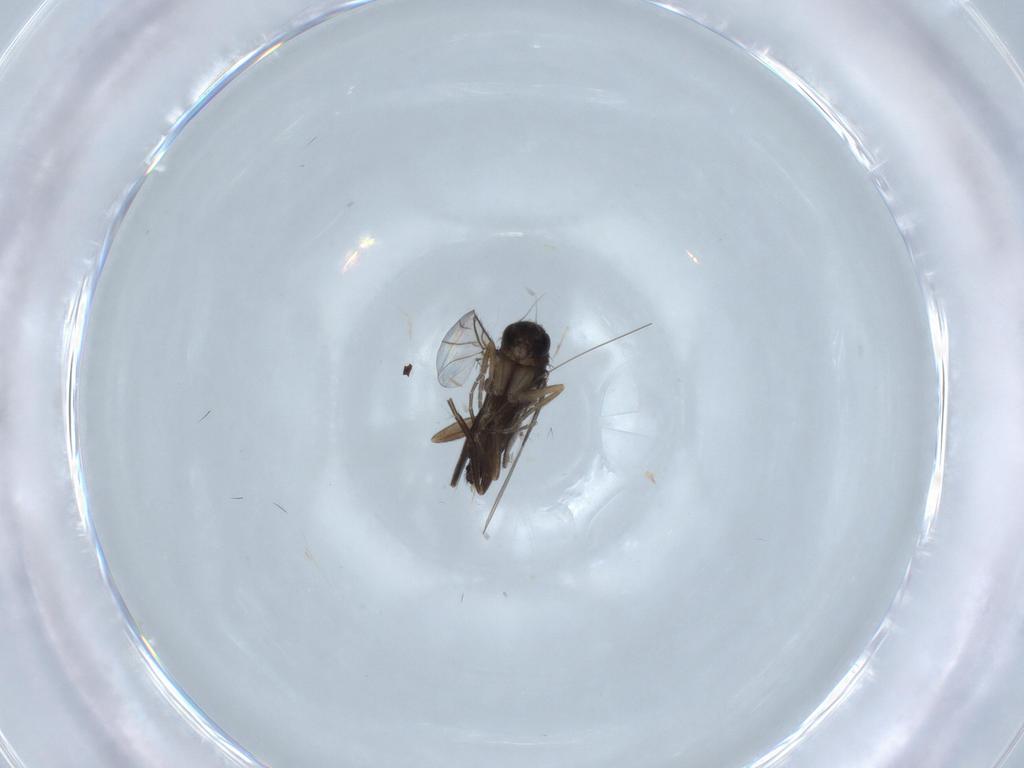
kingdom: Animalia
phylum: Arthropoda
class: Insecta
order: Diptera
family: Phoridae
